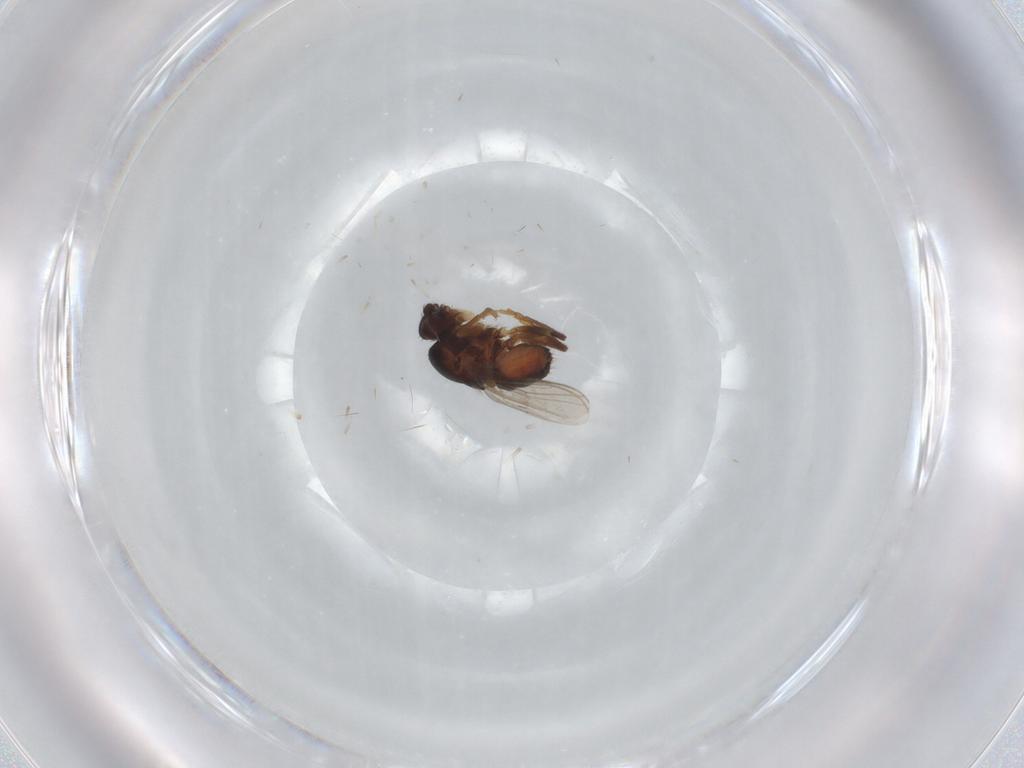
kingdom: Animalia
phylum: Arthropoda
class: Insecta
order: Diptera
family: Sphaeroceridae
